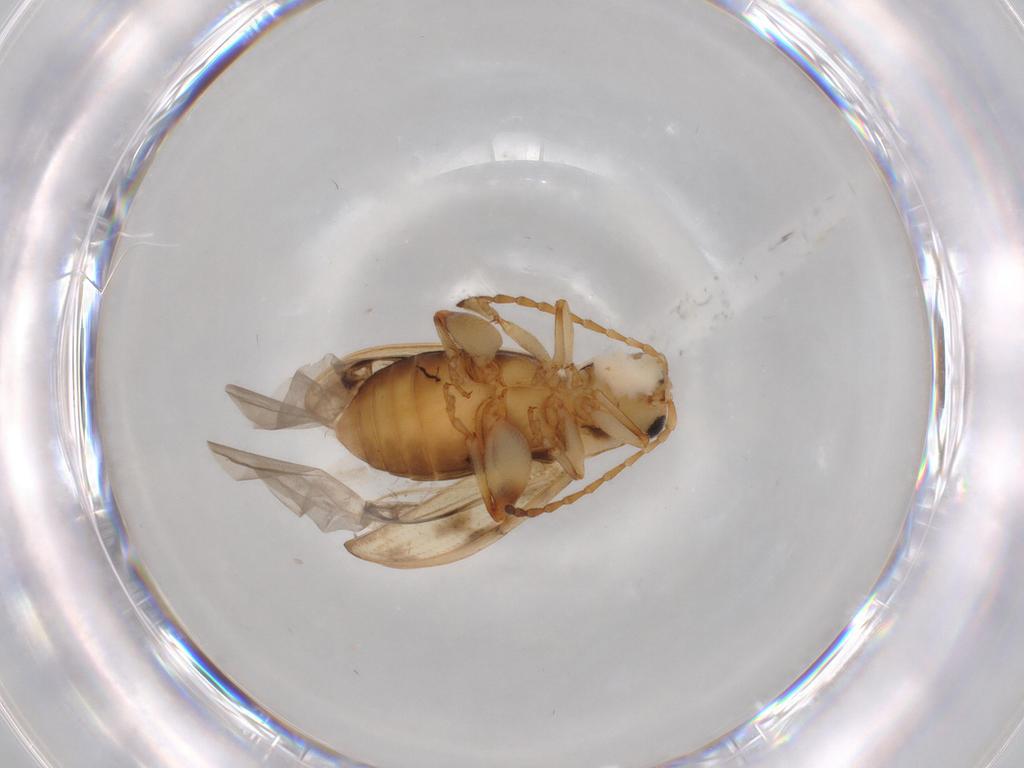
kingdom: Animalia
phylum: Arthropoda
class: Insecta
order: Coleoptera
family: Chrysomelidae
